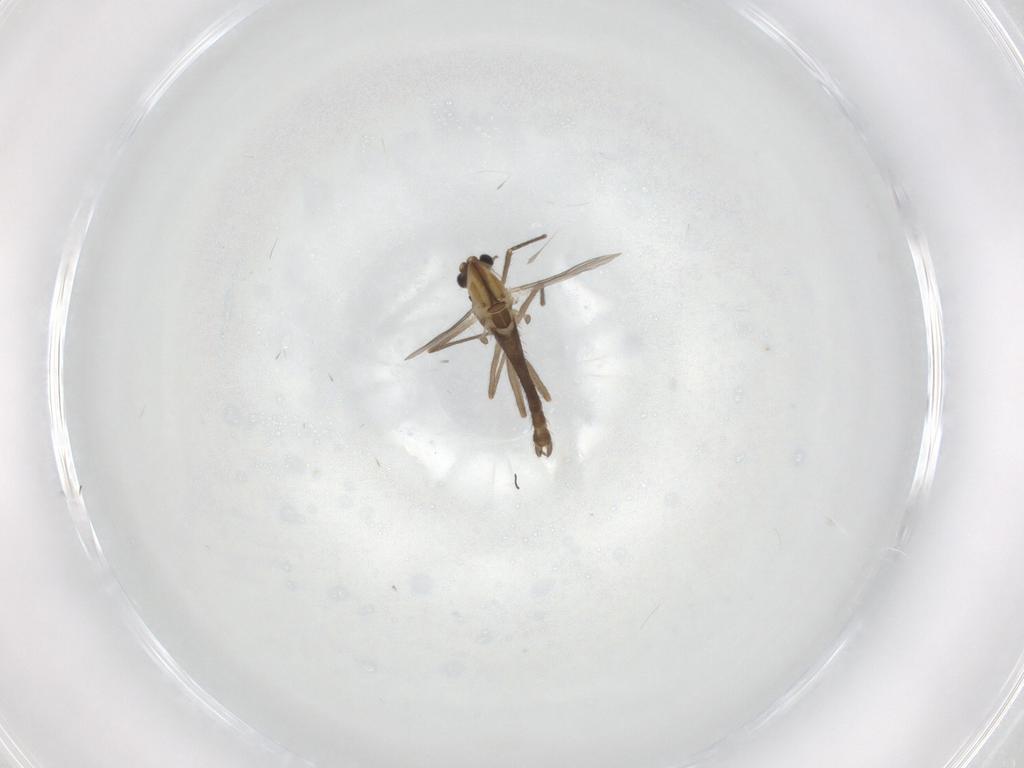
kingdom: Animalia
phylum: Arthropoda
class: Insecta
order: Diptera
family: Chironomidae
